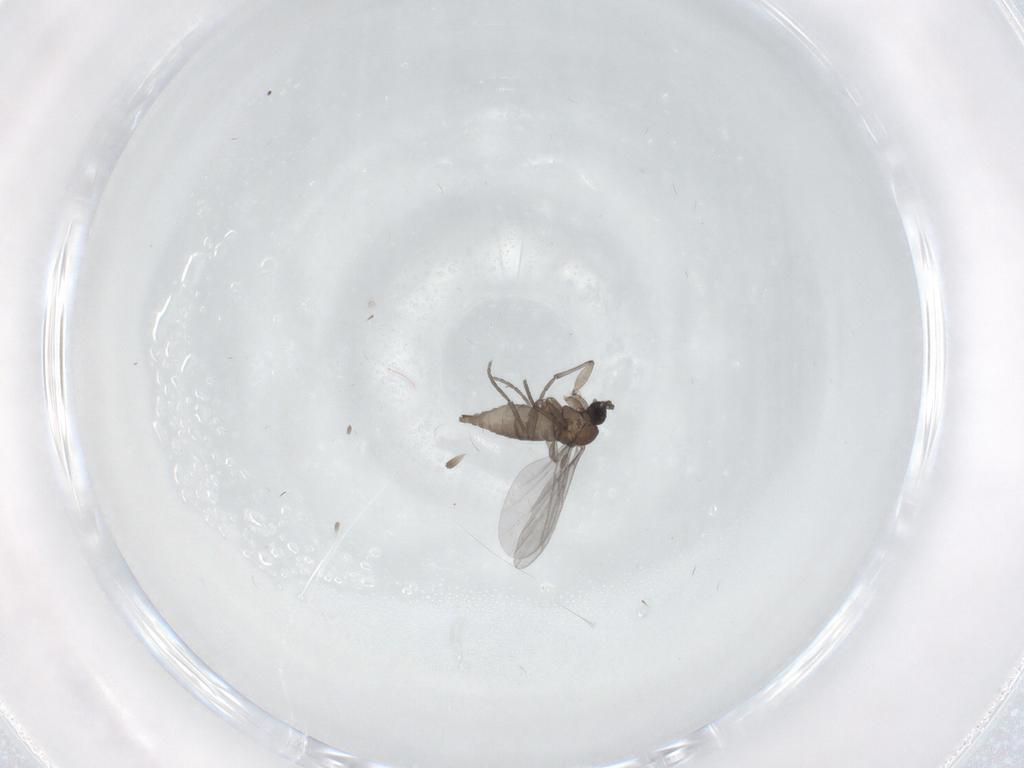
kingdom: Animalia
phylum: Arthropoda
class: Insecta
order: Diptera
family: Sciaridae
